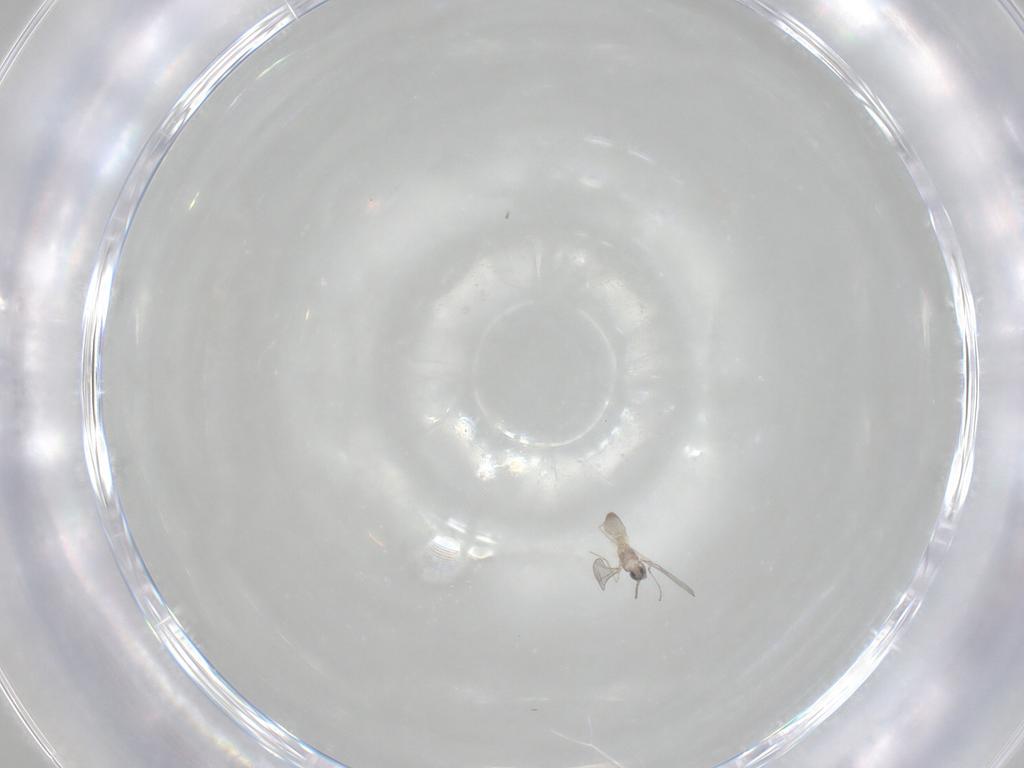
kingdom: Animalia
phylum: Arthropoda
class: Insecta
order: Diptera
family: Cecidomyiidae
